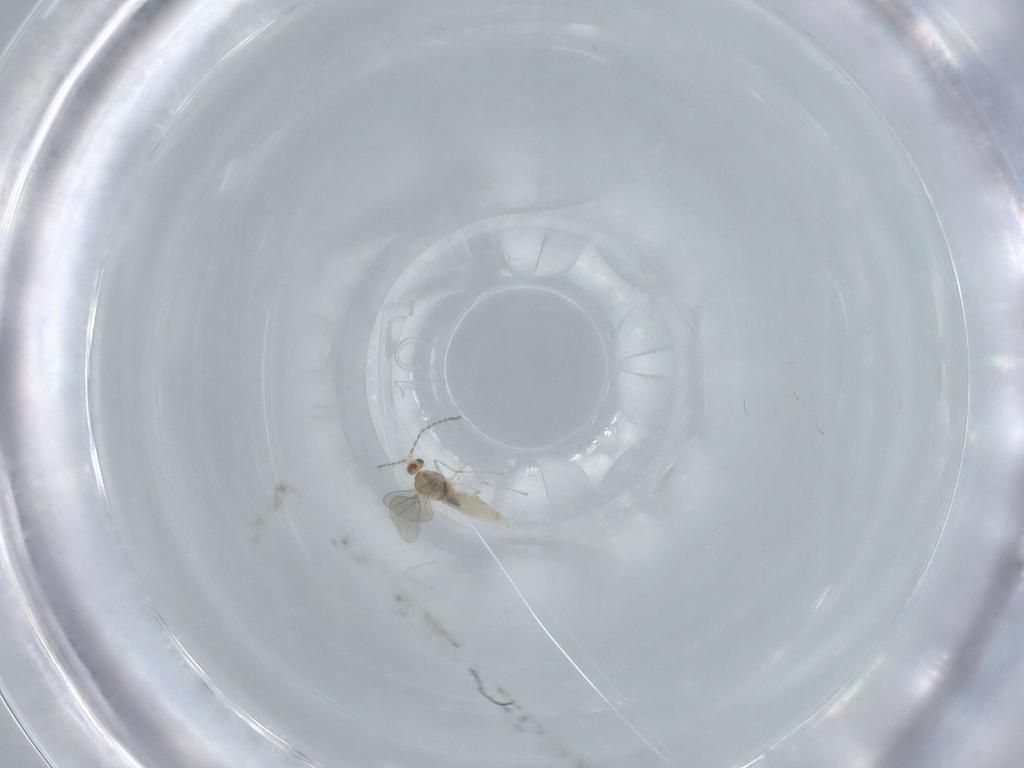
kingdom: Animalia
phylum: Arthropoda
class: Insecta
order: Diptera
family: Cecidomyiidae
